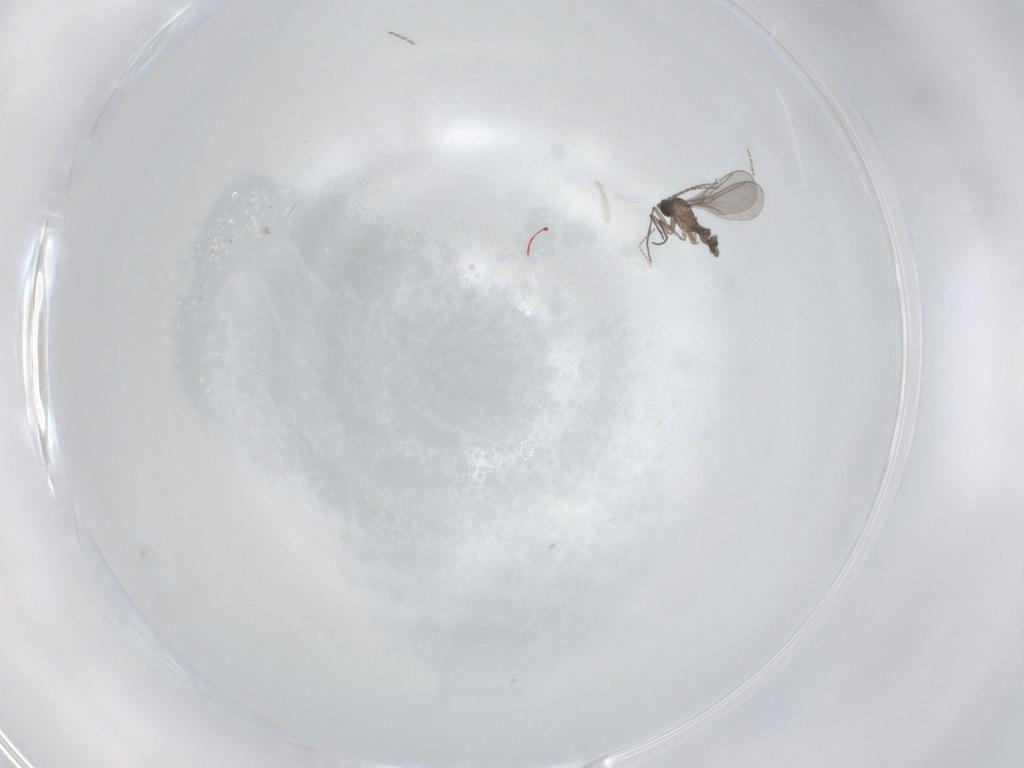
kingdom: Animalia
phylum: Arthropoda
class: Insecta
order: Diptera
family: Sciaridae
